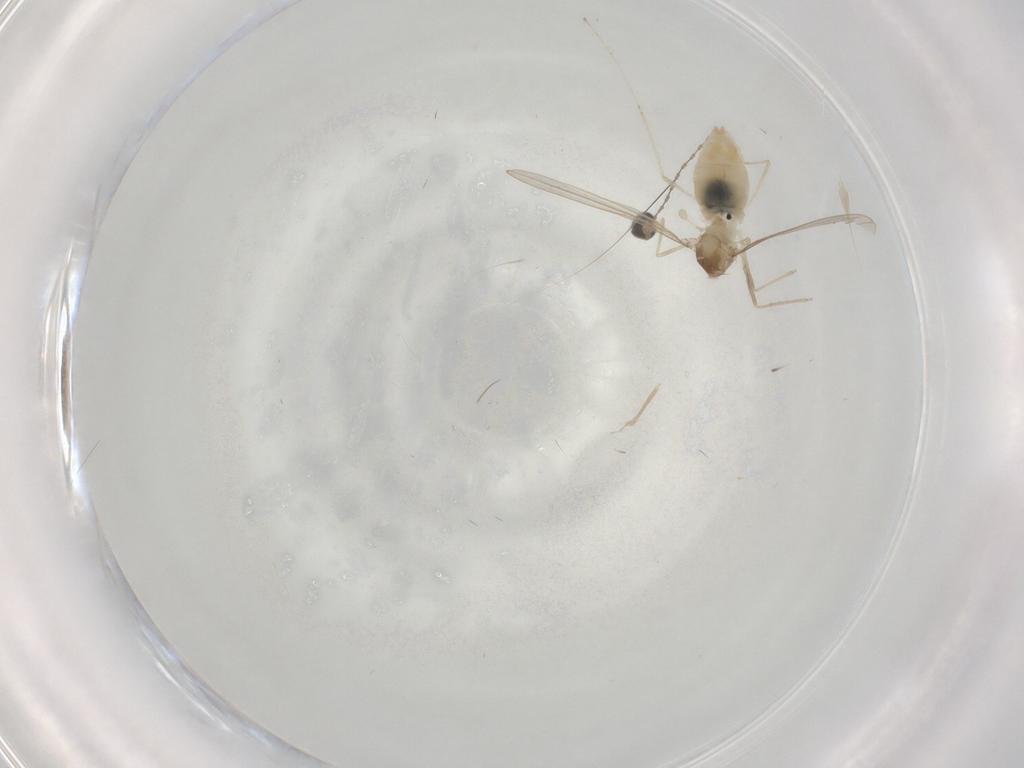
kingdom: Animalia
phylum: Arthropoda
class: Insecta
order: Diptera
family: Cecidomyiidae
